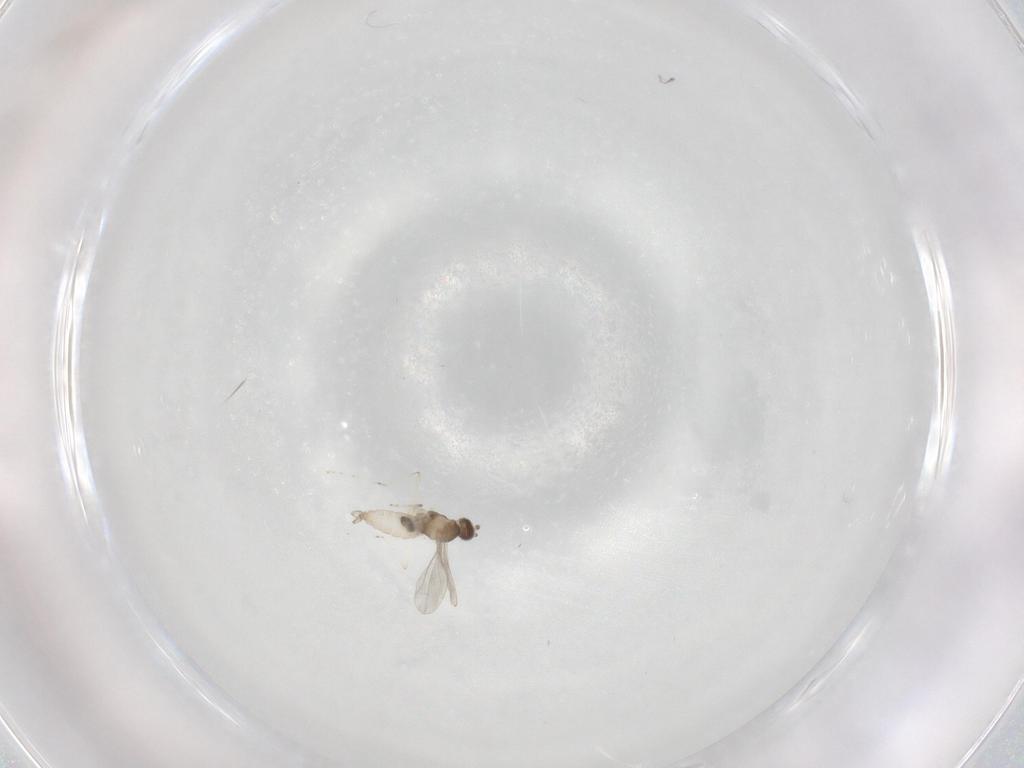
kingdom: Animalia
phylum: Arthropoda
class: Insecta
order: Diptera
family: Cecidomyiidae
